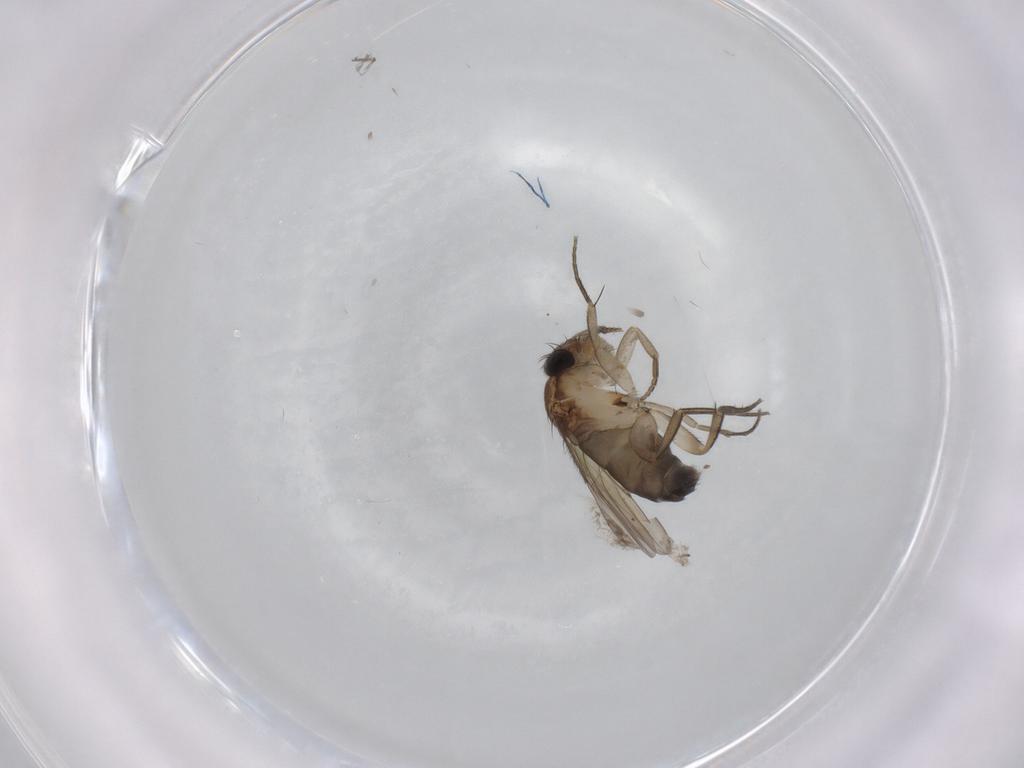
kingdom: Animalia
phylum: Arthropoda
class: Insecta
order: Diptera
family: Phoridae
